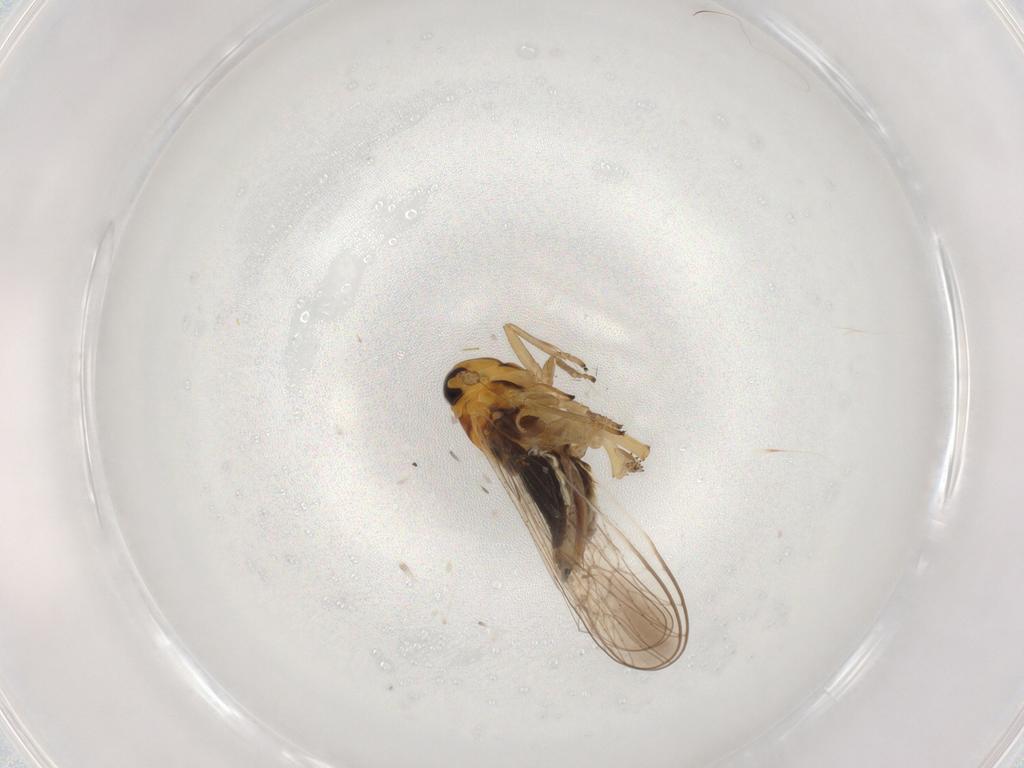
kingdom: Animalia
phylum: Arthropoda
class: Insecta
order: Hemiptera
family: Delphacidae
